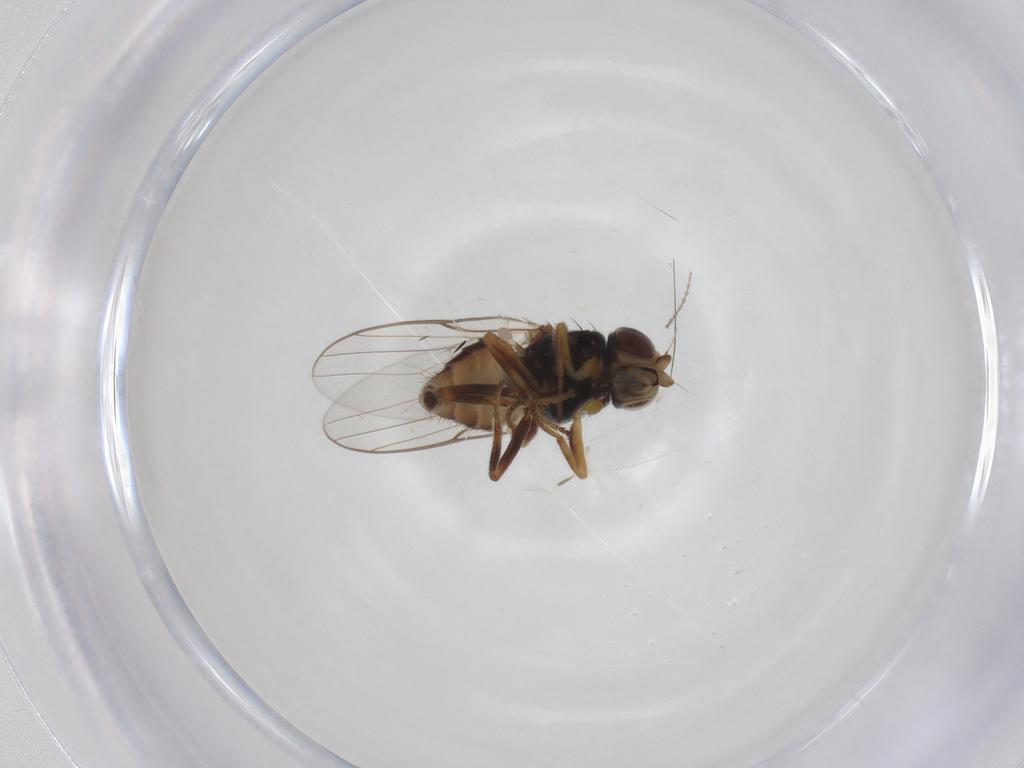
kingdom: Animalia
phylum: Arthropoda
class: Insecta
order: Diptera
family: Chloropidae
